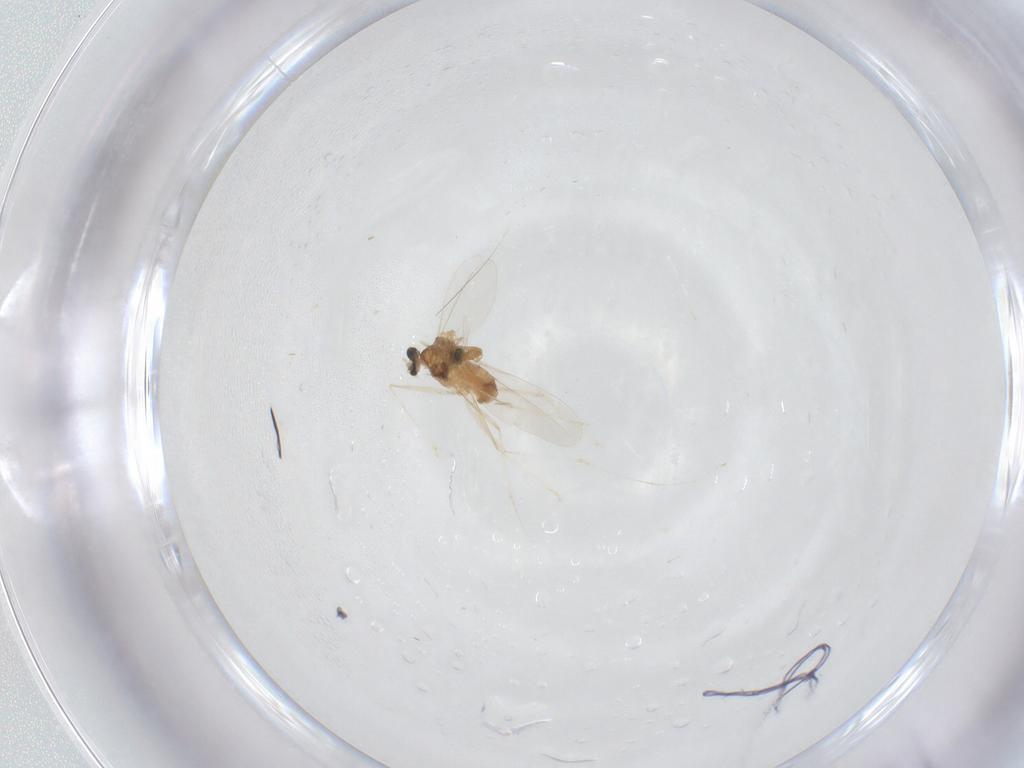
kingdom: Animalia
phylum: Arthropoda
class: Insecta
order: Diptera
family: Cecidomyiidae
